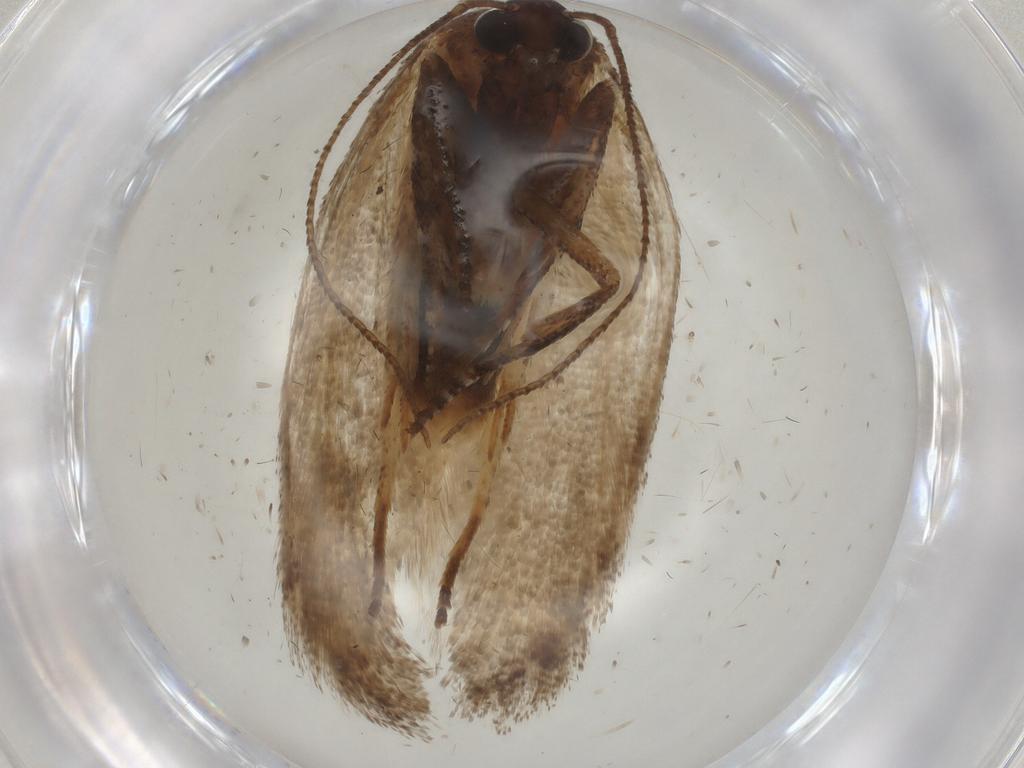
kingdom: Animalia
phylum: Arthropoda
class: Insecta
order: Lepidoptera
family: Cosmopterigidae
